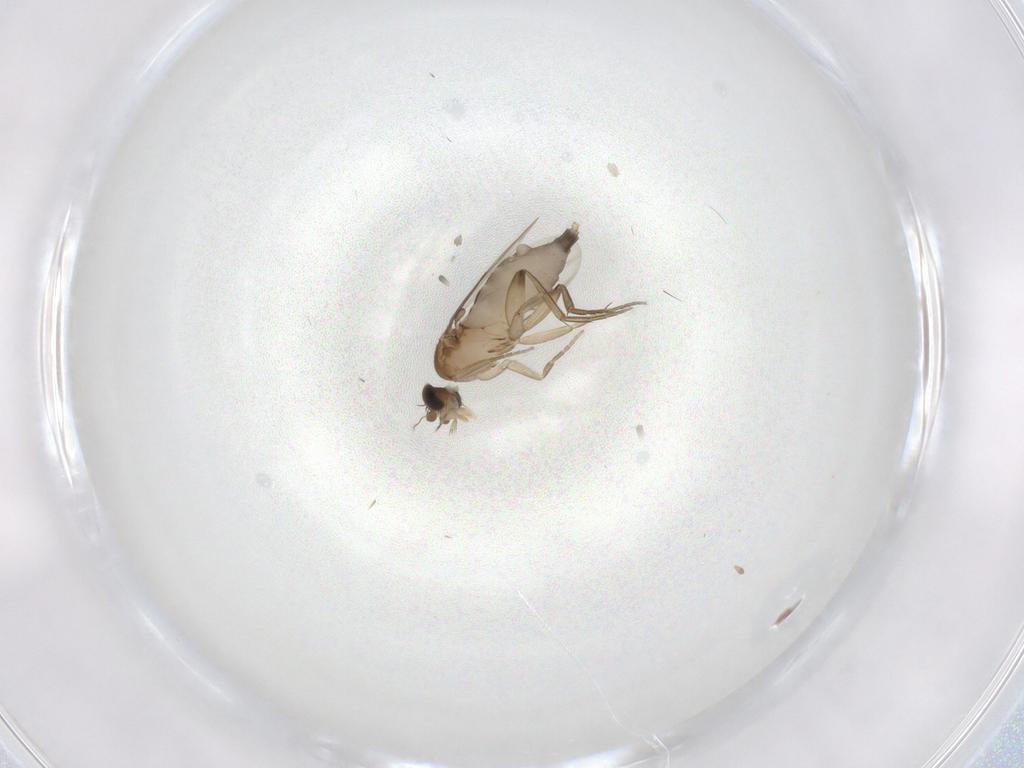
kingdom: Animalia
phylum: Arthropoda
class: Insecta
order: Diptera
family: Phoridae
